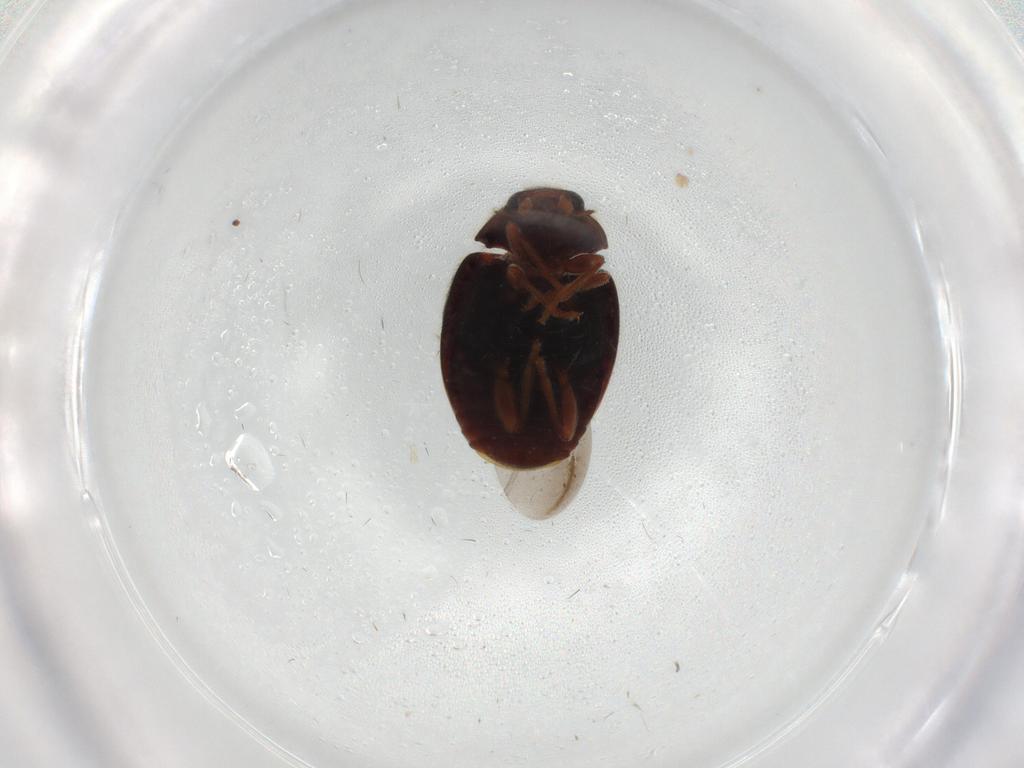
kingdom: Animalia
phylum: Arthropoda
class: Insecta
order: Coleoptera
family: Coccinellidae
